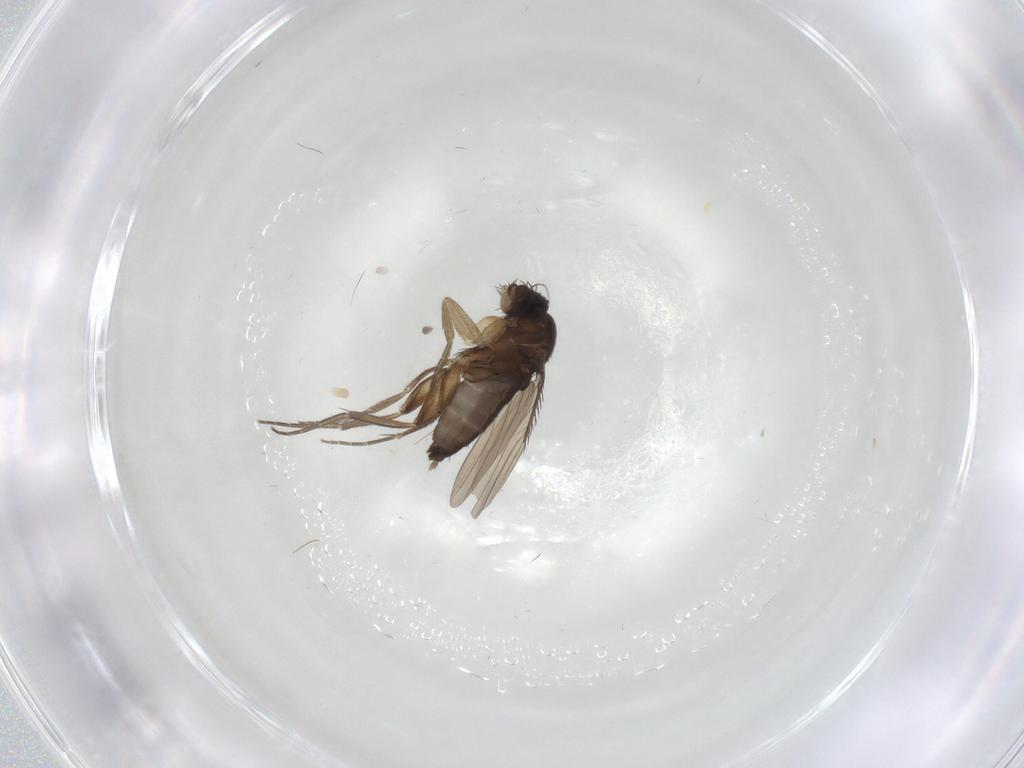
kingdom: Animalia
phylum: Arthropoda
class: Insecta
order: Diptera
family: Phoridae
